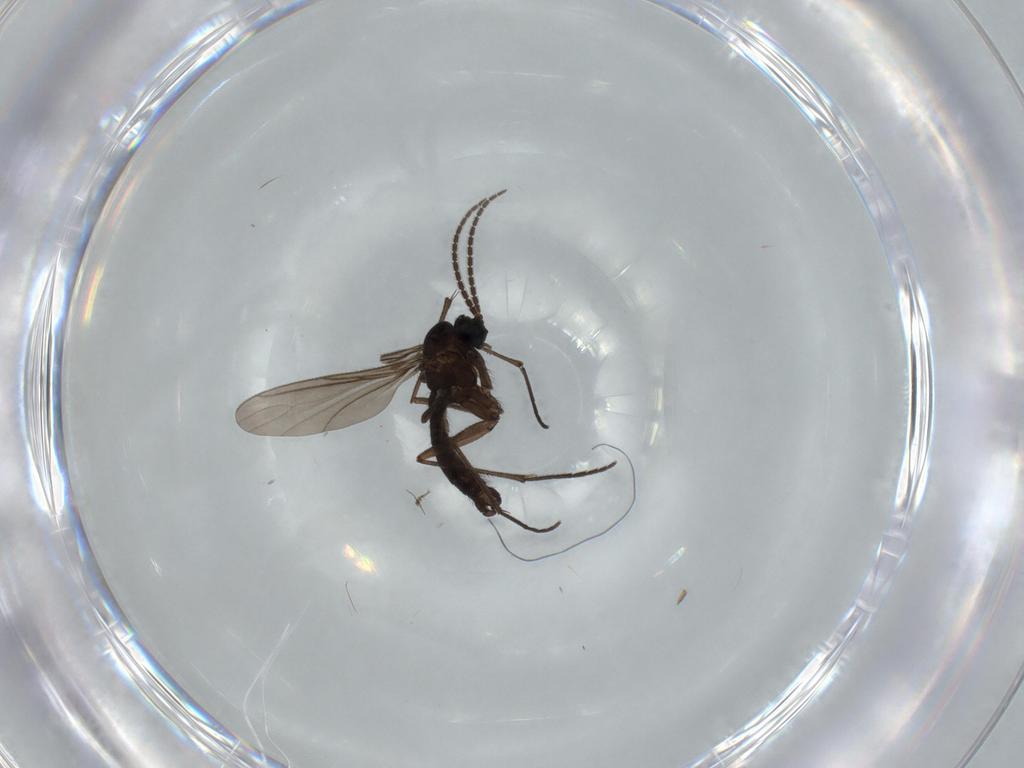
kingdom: Animalia
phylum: Arthropoda
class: Insecta
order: Diptera
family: Sciaridae
